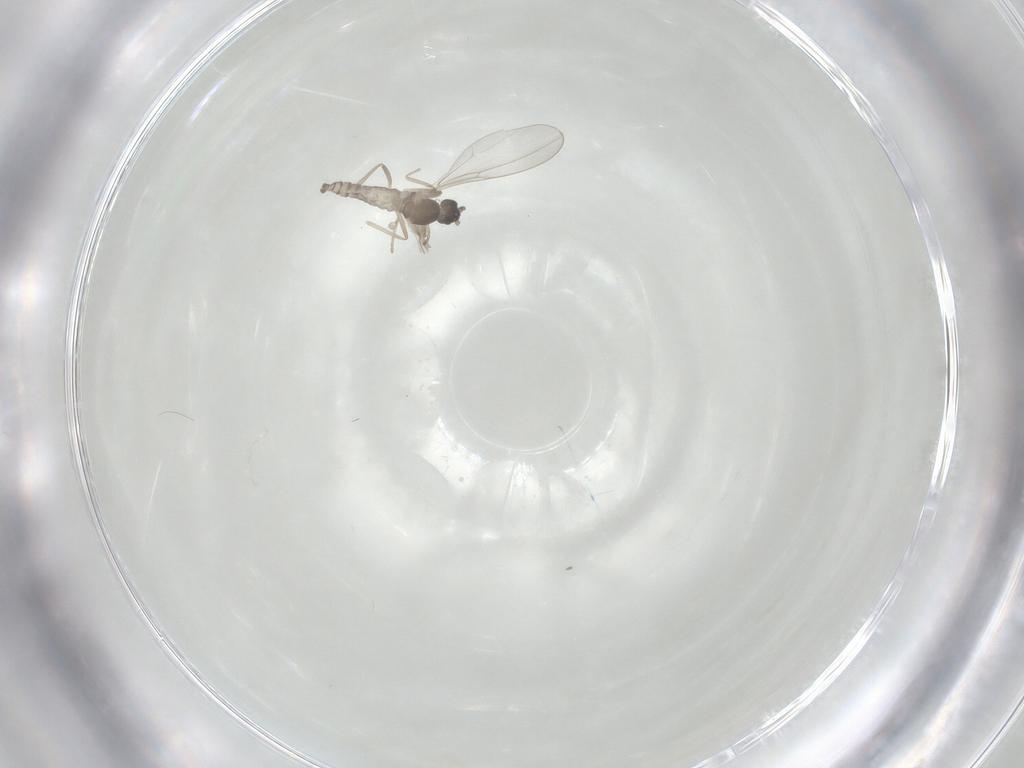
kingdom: Animalia
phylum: Arthropoda
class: Insecta
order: Diptera
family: Cecidomyiidae
